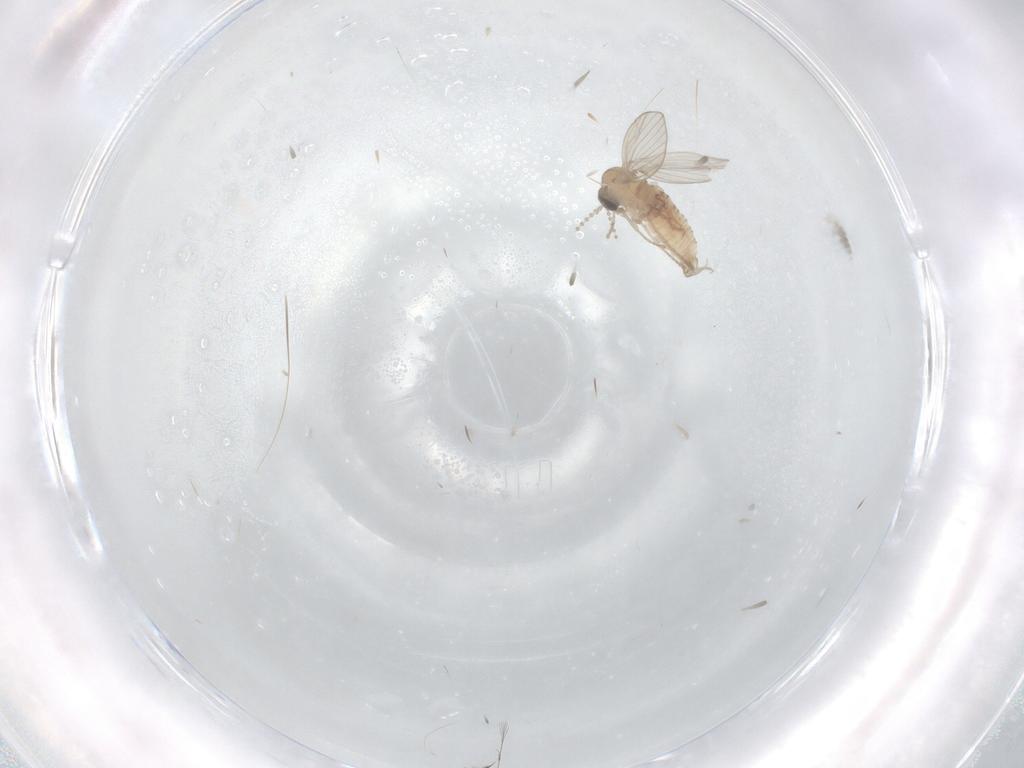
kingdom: Animalia
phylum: Arthropoda
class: Insecta
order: Diptera
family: Psychodidae
